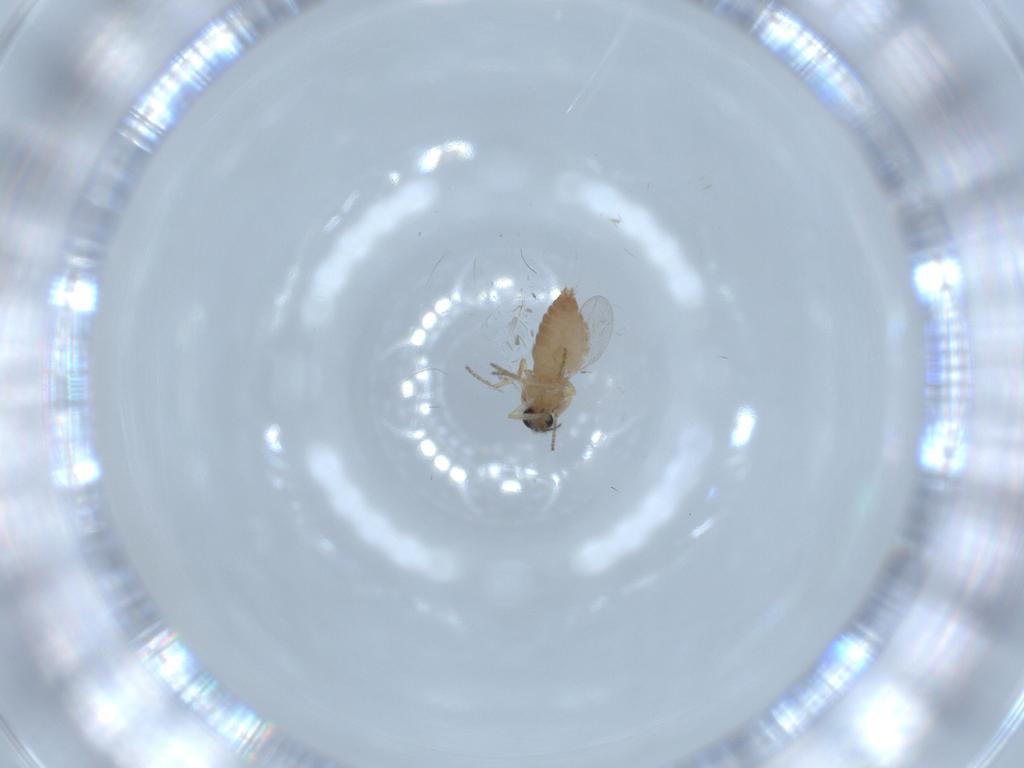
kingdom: Animalia
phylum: Arthropoda
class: Insecta
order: Diptera
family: Ceratopogonidae
